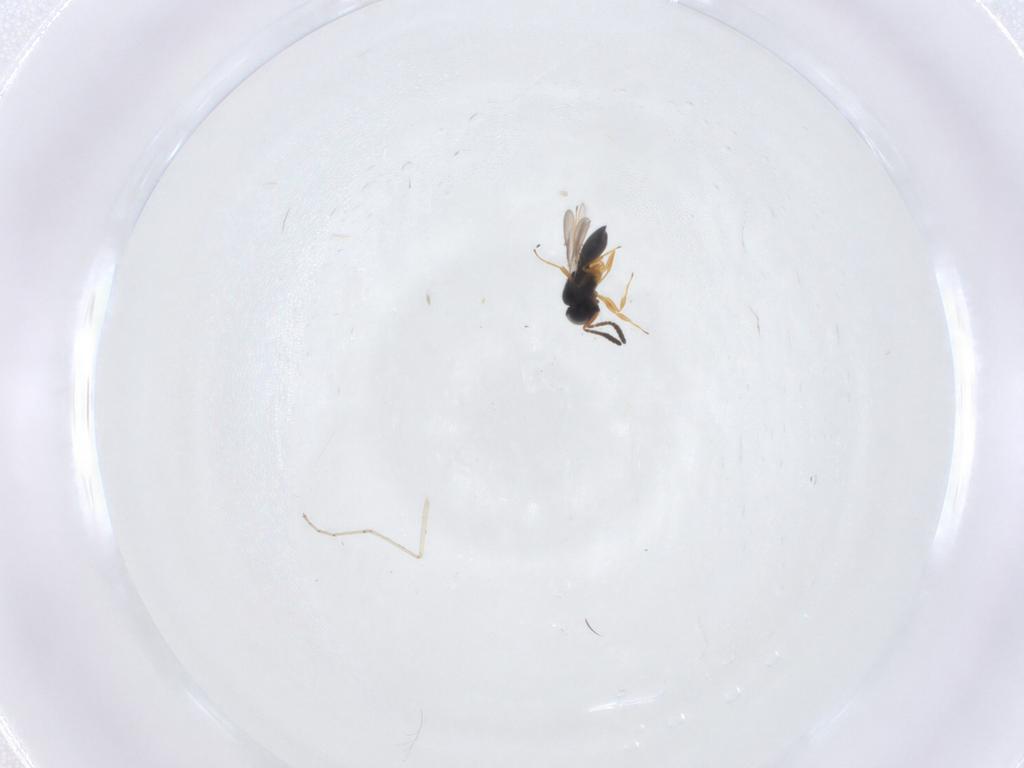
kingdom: Animalia
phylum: Arthropoda
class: Insecta
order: Hymenoptera
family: Scelionidae
